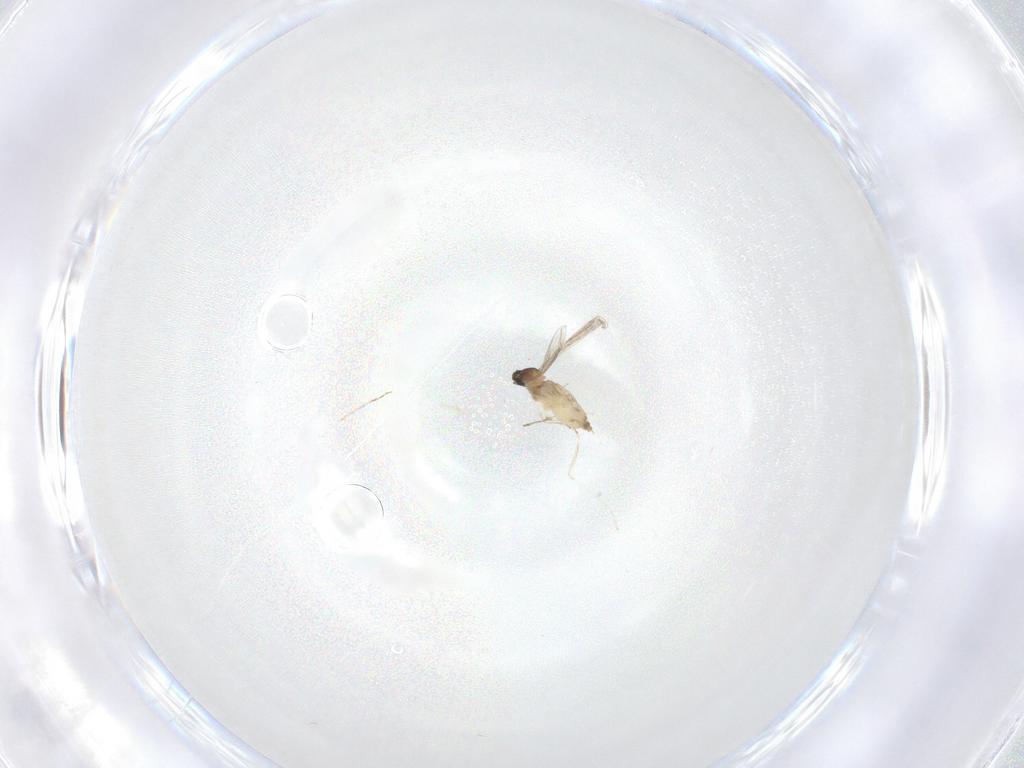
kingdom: Animalia
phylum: Arthropoda
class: Insecta
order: Diptera
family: Cecidomyiidae
